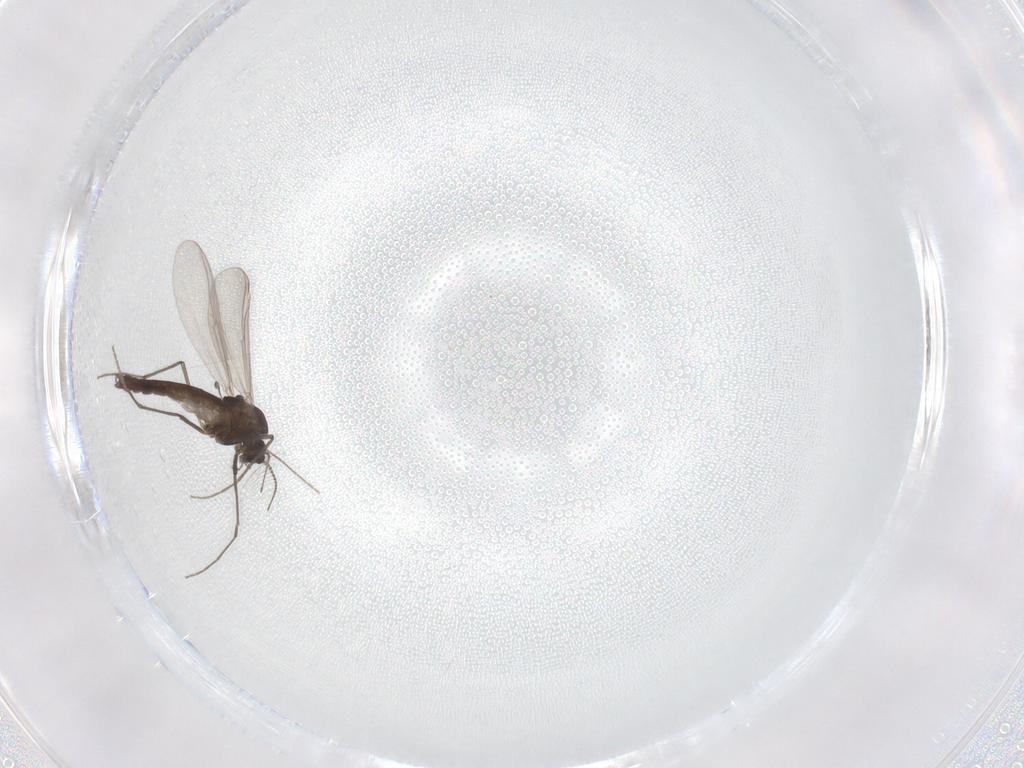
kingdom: Animalia
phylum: Arthropoda
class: Insecta
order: Diptera
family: Chironomidae
